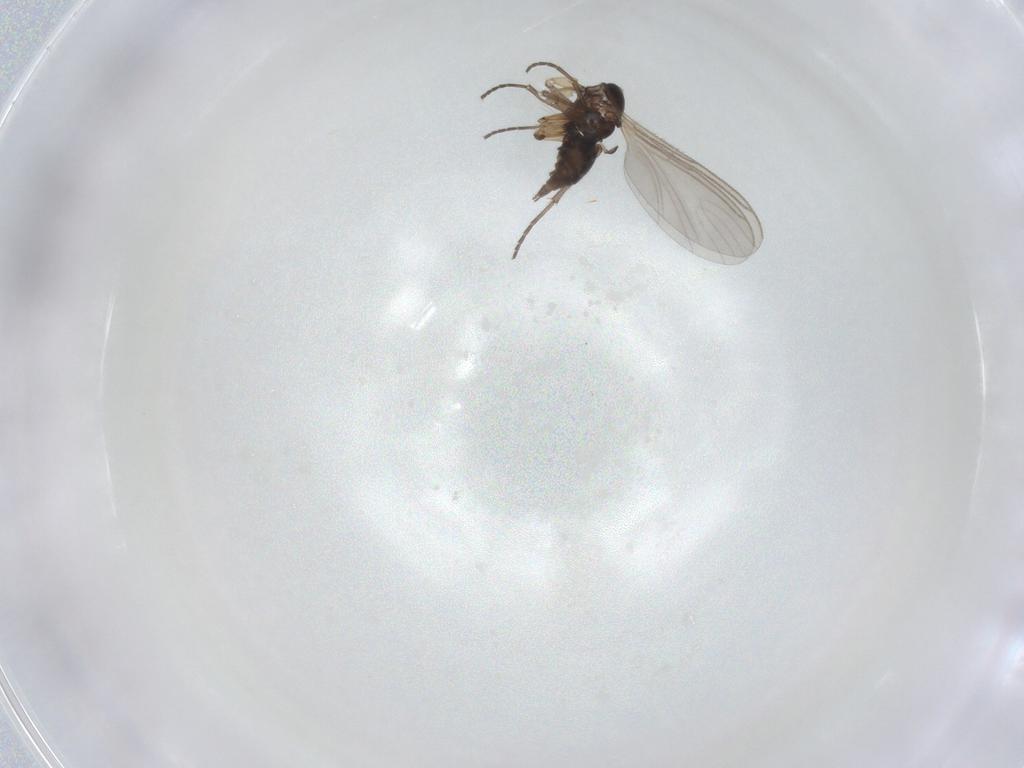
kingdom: Animalia
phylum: Arthropoda
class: Insecta
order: Diptera
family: Sciaridae
